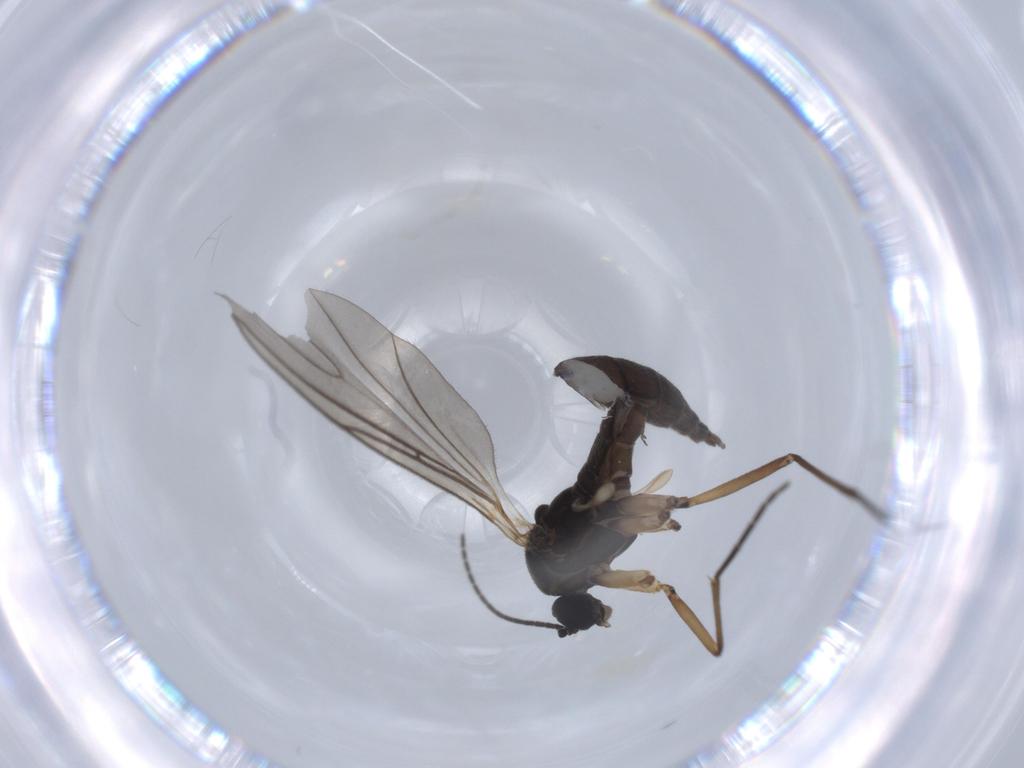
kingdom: Animalia
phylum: Arthropoda
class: Insecta
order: Diptera
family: Sciaridae
